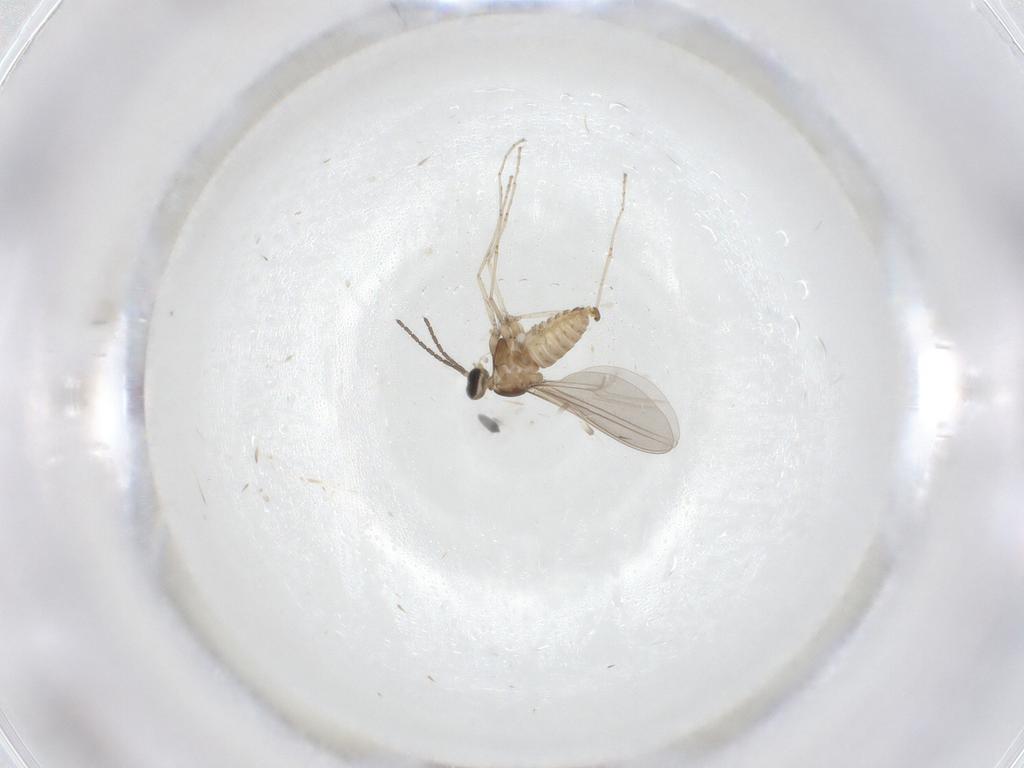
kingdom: Animalia
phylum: Arthropoda
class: Insecta
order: Diptera
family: Cecidomyiidae
